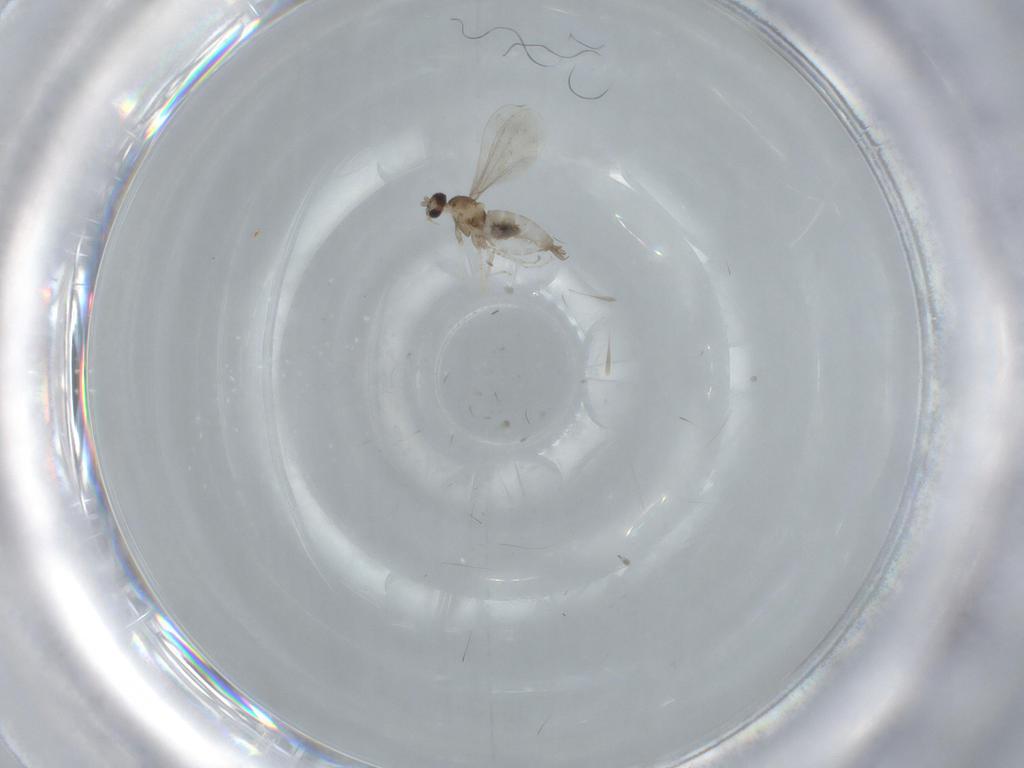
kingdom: Animalia
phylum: Arthropoda
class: Insecta
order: Diptera
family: Cecidomyiidae
